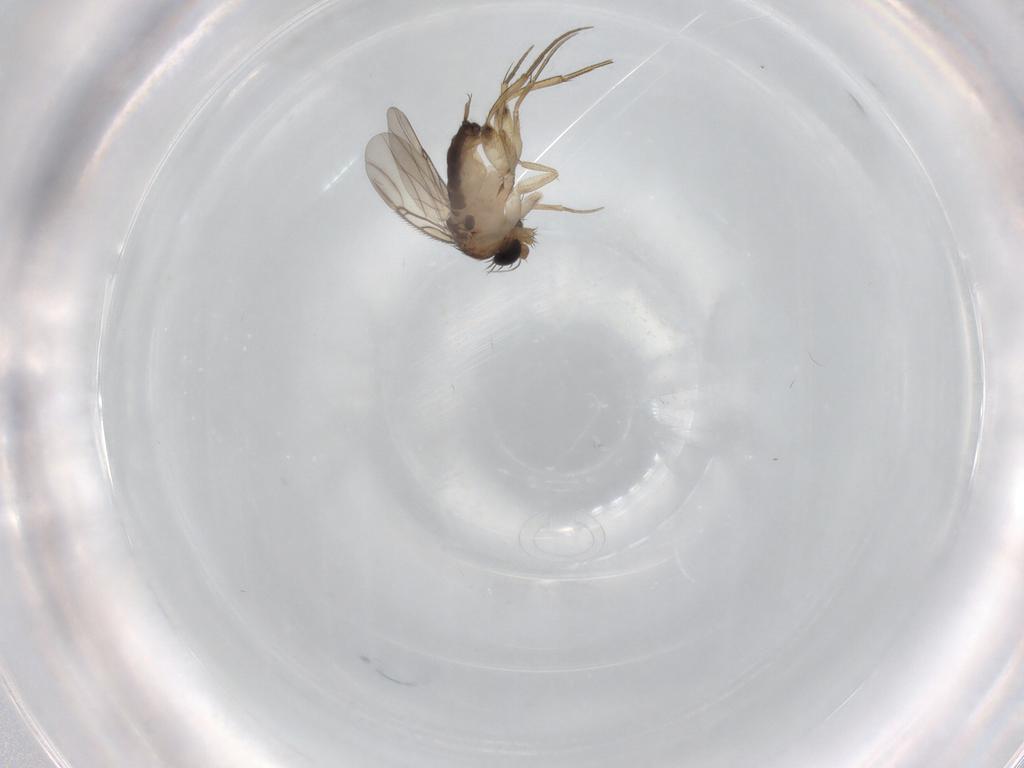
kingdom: Animalia
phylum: Arthropoda
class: Insecta
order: Diptera
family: Phoridae
